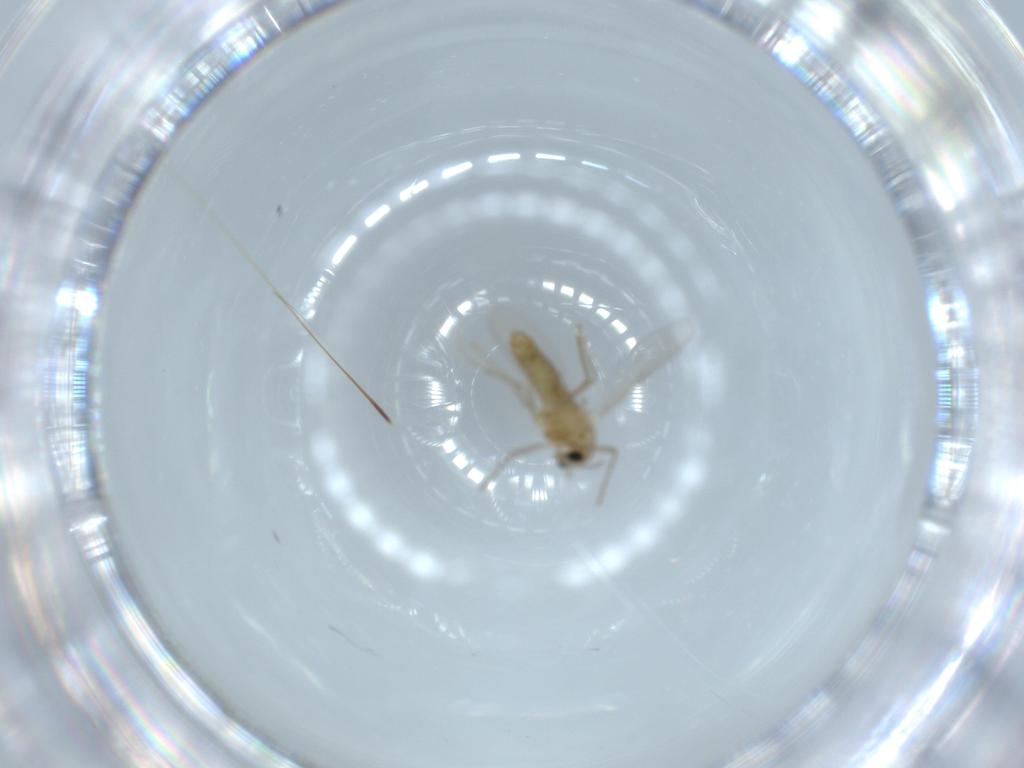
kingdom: Animalia
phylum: Arthropoda
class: Insecta
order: Diptera
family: Chironomidae
